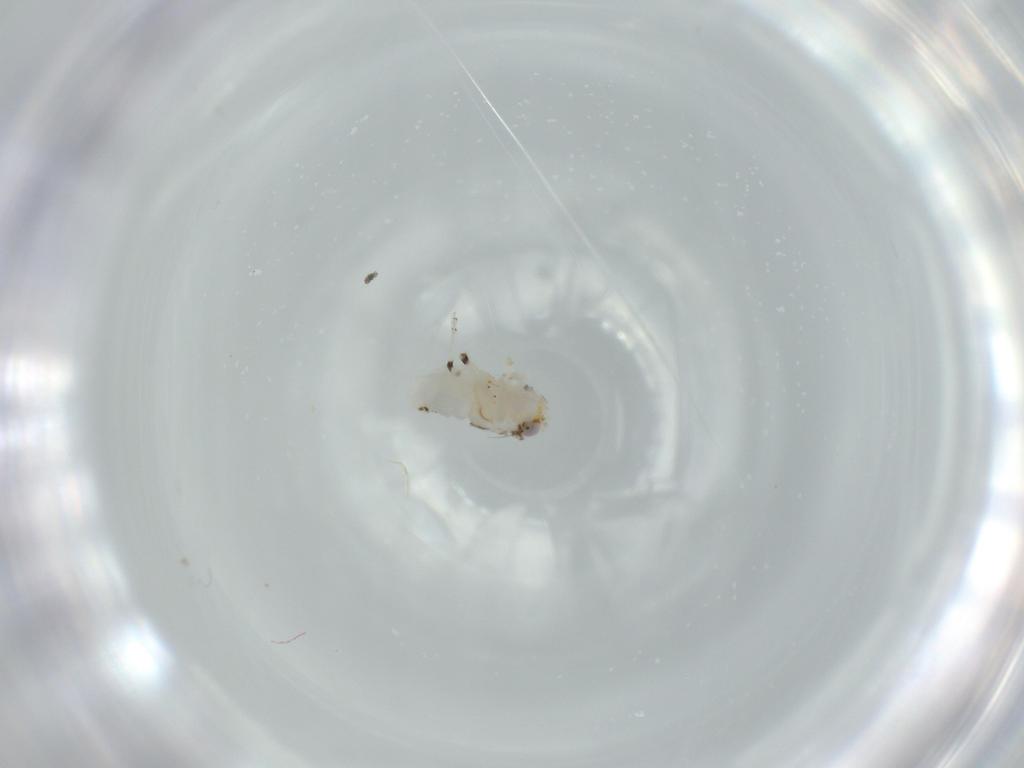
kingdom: Animalia
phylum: Arthropoda
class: Insecta
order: Hemiptera
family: Nogodinidae
